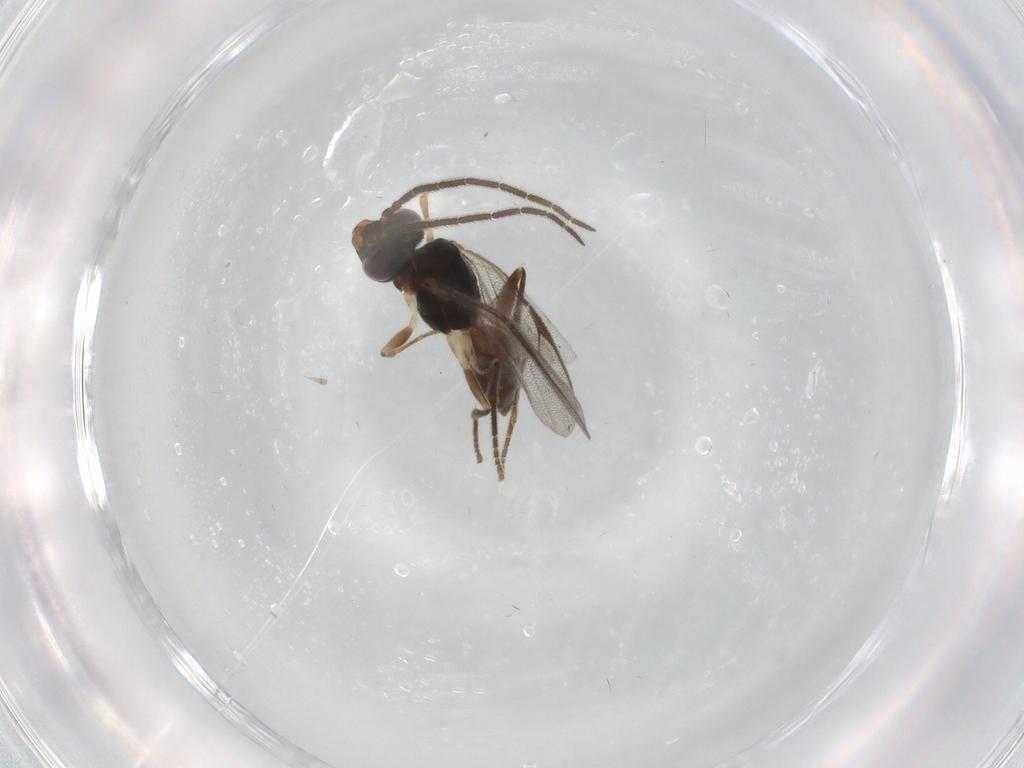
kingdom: Animalia
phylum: Arthropoda
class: Insecta
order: Hymenoptera
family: Dryinidae
